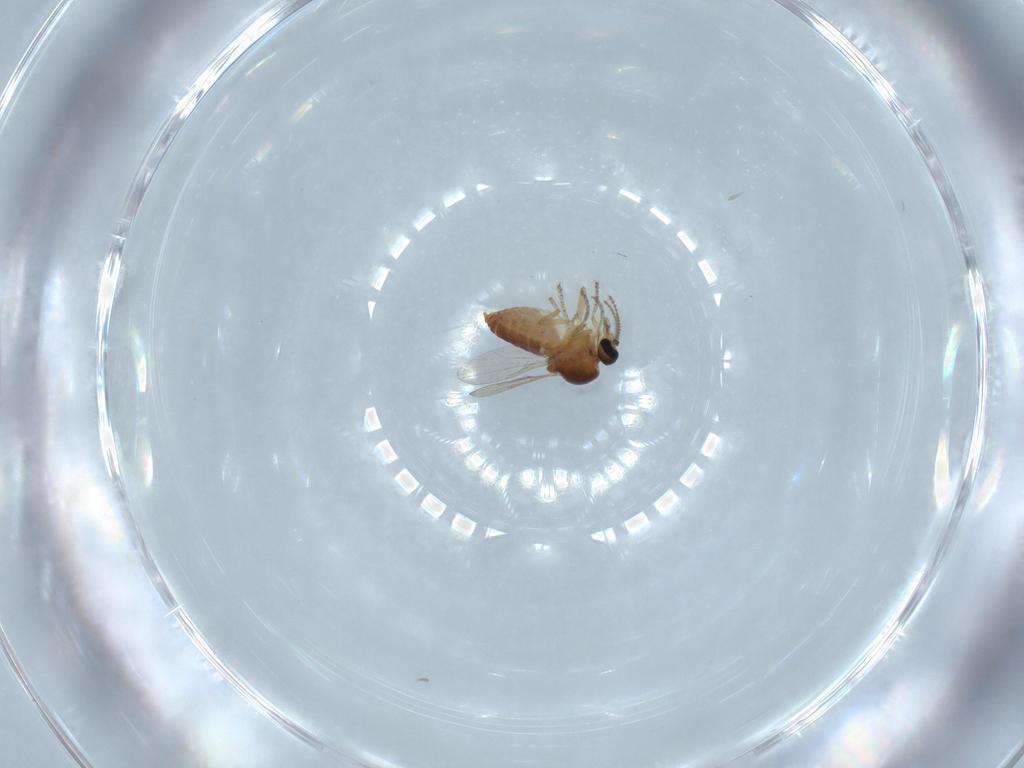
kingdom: Animalia
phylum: Arthropoda
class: Insecta
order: Diptera
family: Ceratopogonidae
